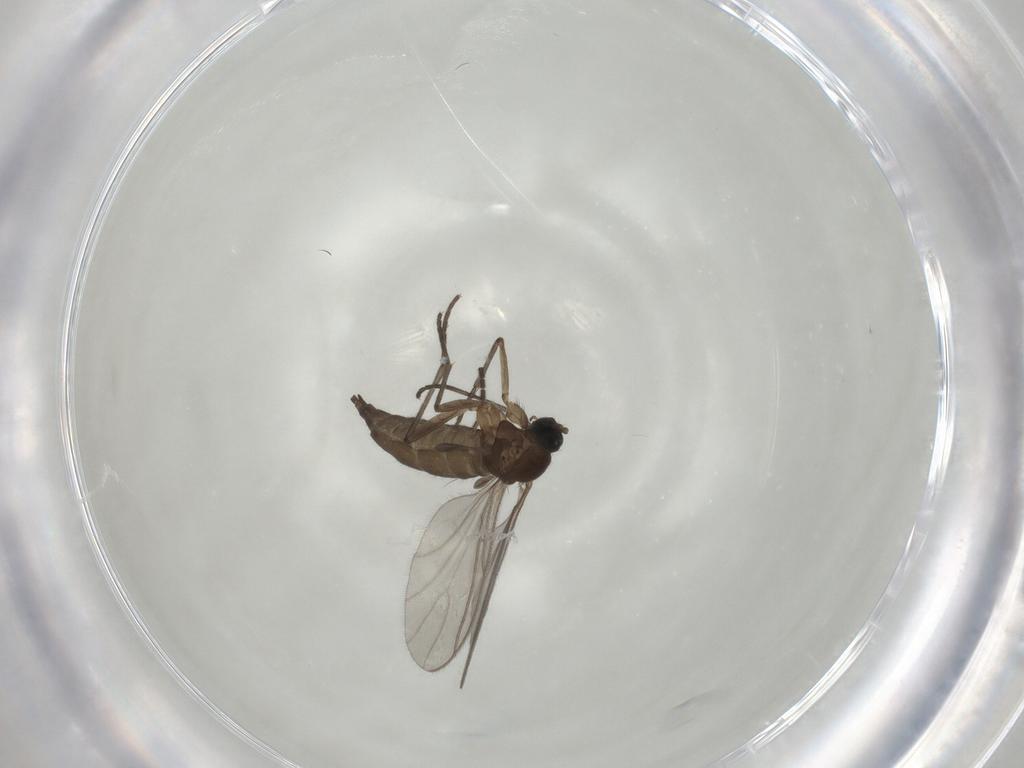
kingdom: Animalia
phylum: Arthropoda
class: Insecta
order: Diptera
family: Sciaridae
